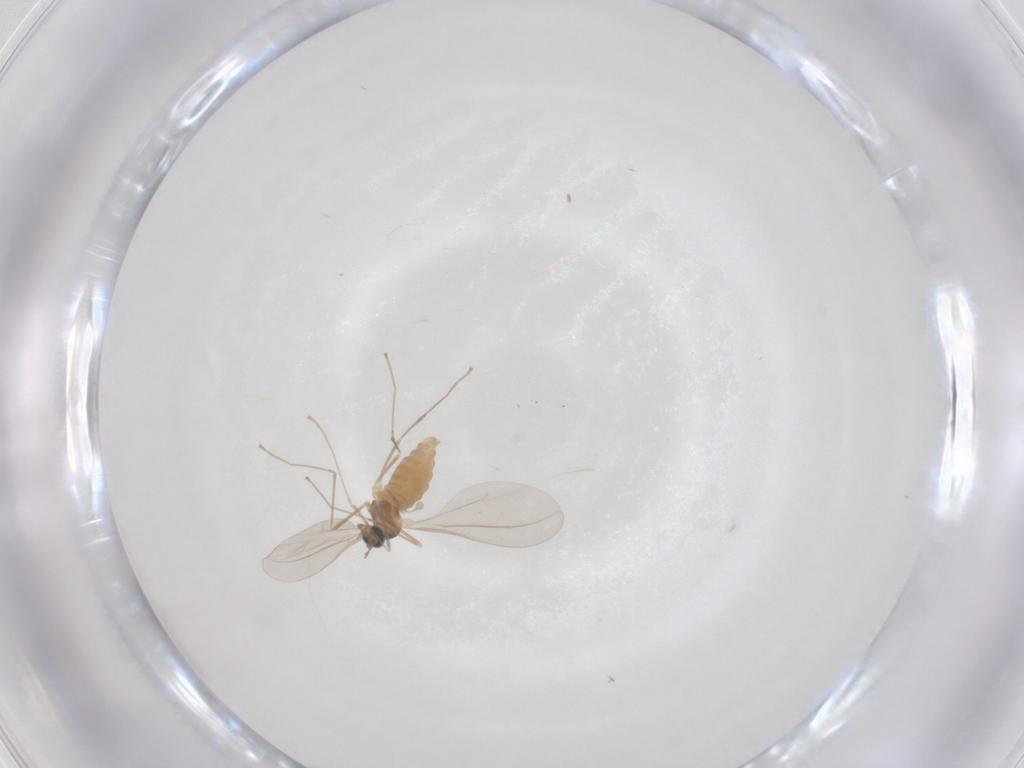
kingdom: Animalia
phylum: Arthropoda
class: Insecta
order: Diptera
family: Cecidomyiidae
